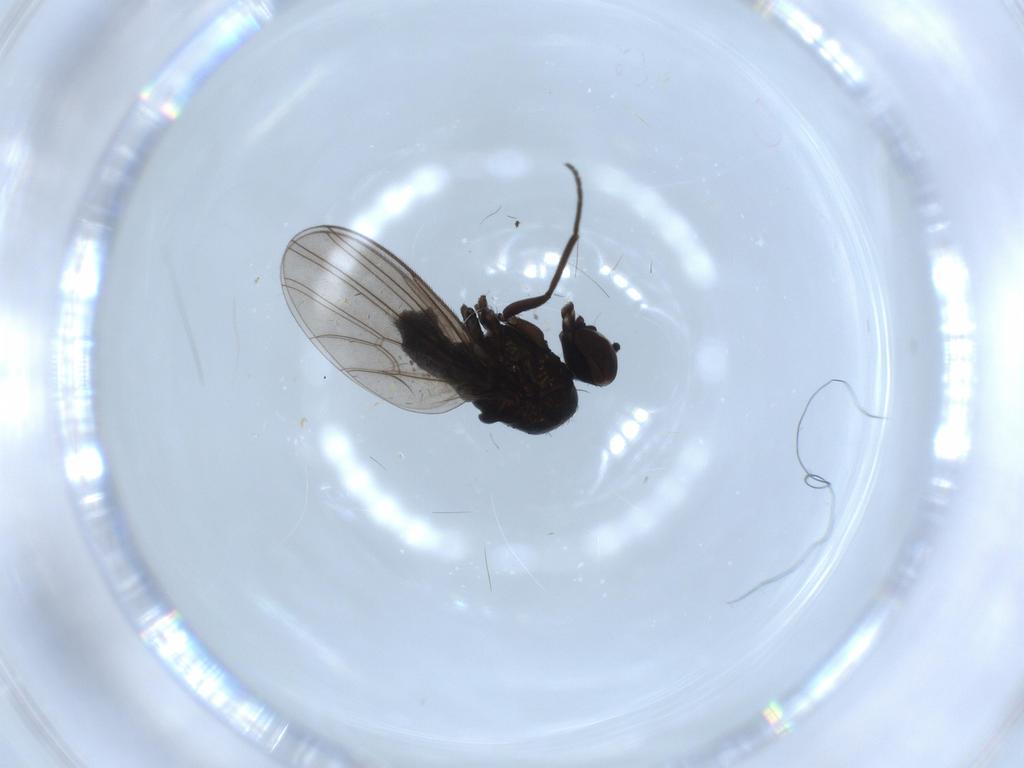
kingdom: Animalia
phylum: Arthropoda
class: Insecta
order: Diptera
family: Dolichopodidae
